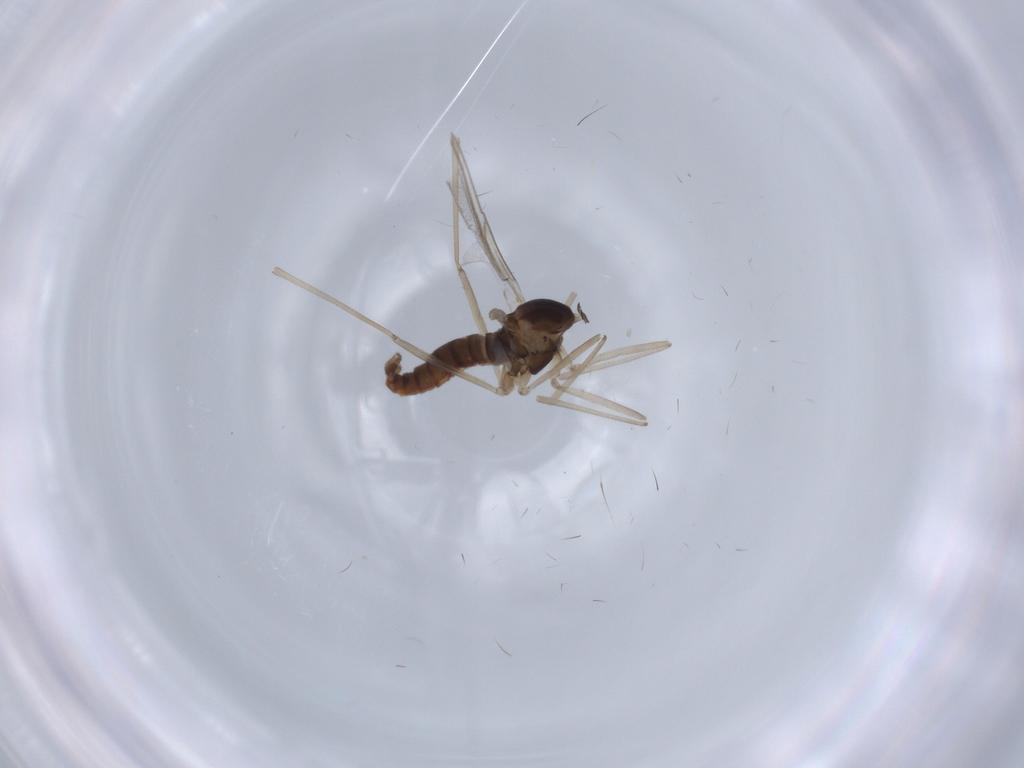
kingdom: Animalia
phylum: Arthropoda
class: Insecta
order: Diptera
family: Cecidomyiidae
